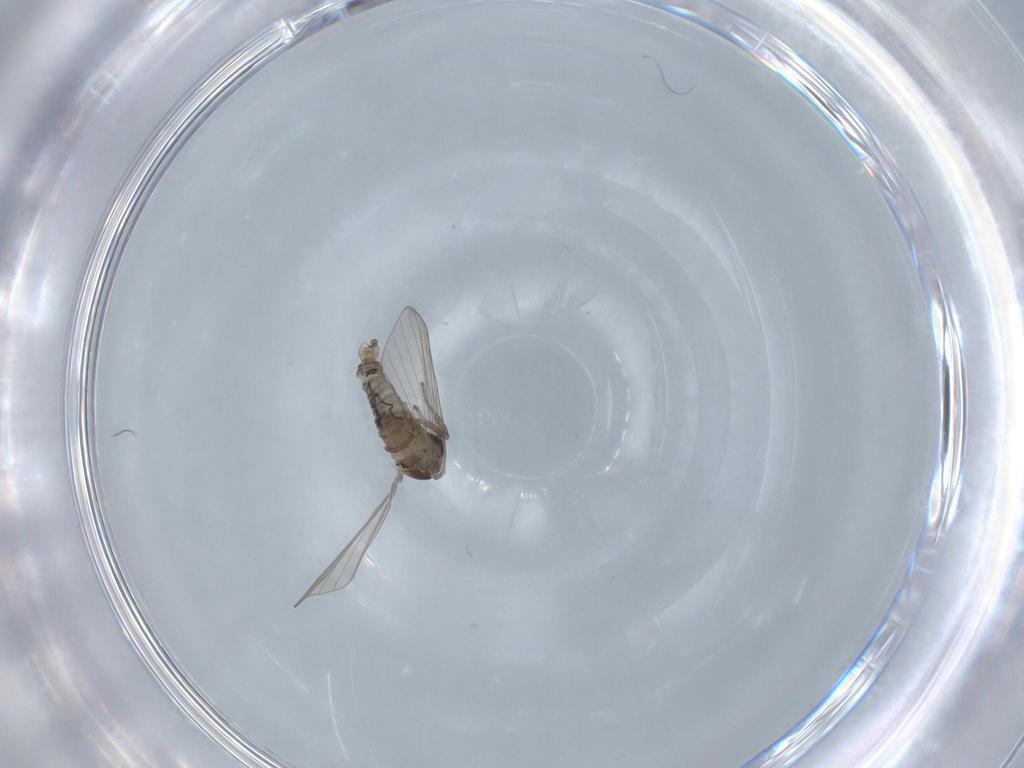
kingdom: Animalia
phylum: Arthropoda
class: Insecta
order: Diptera
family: Psychodidae
